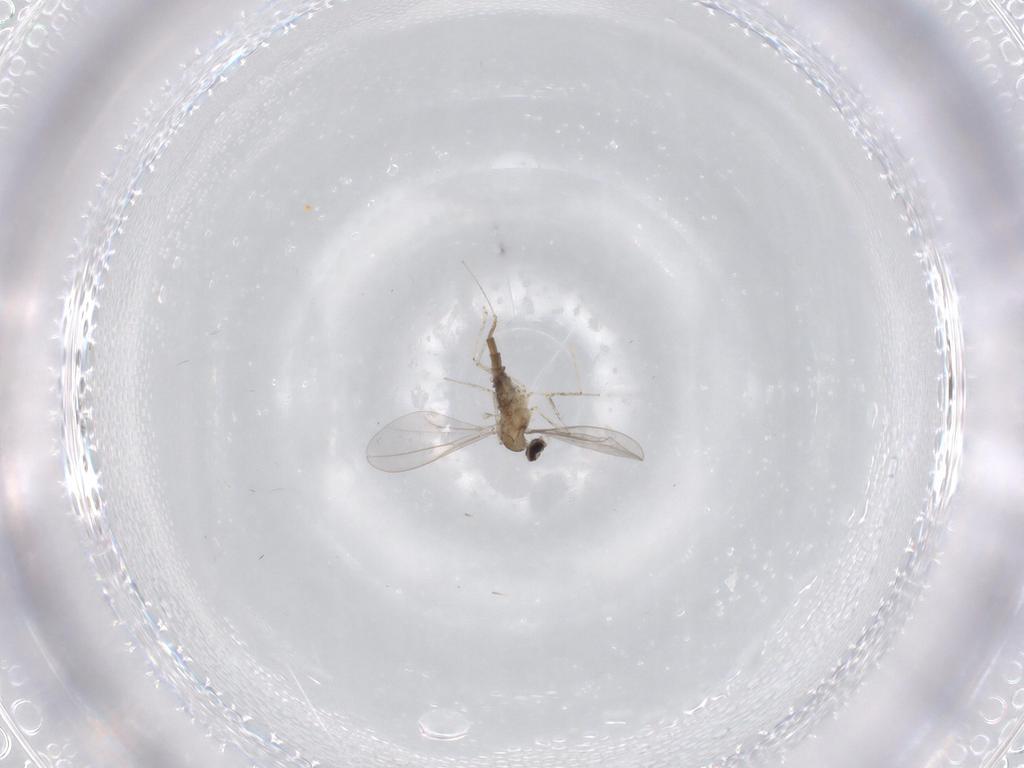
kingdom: Animalia
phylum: Arthropoda
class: Insecta
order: Diptera
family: Cecidomyiidae
